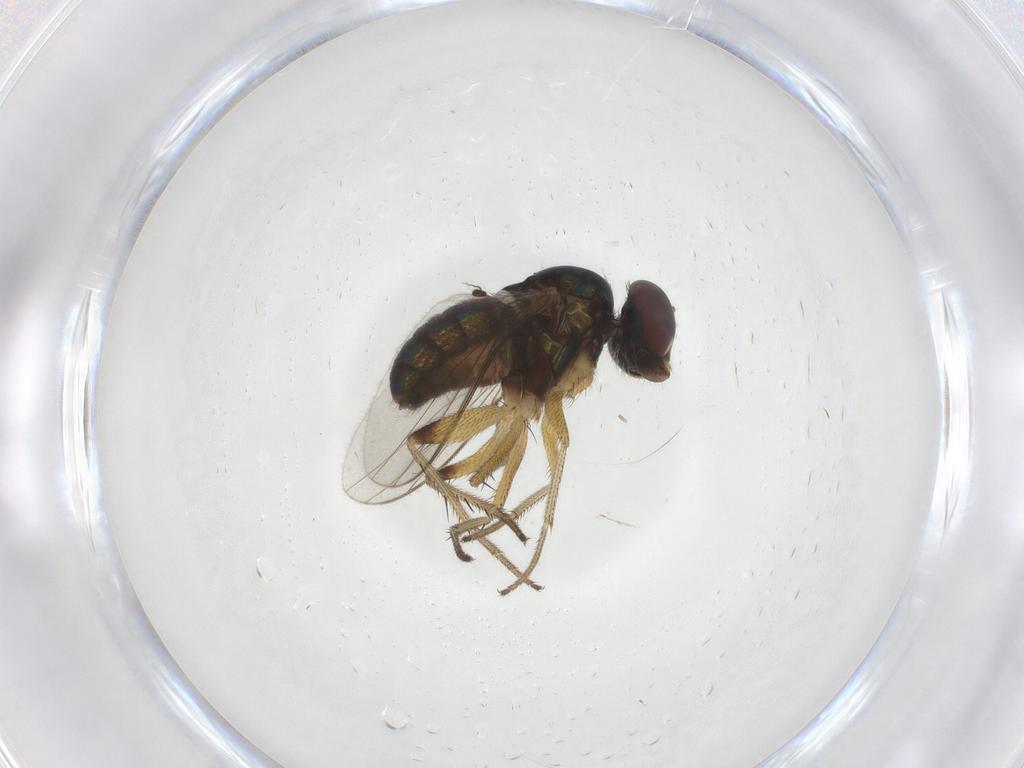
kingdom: Animalia
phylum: Arthropoda
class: Insecta
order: Diptera
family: Dolichopodidae
